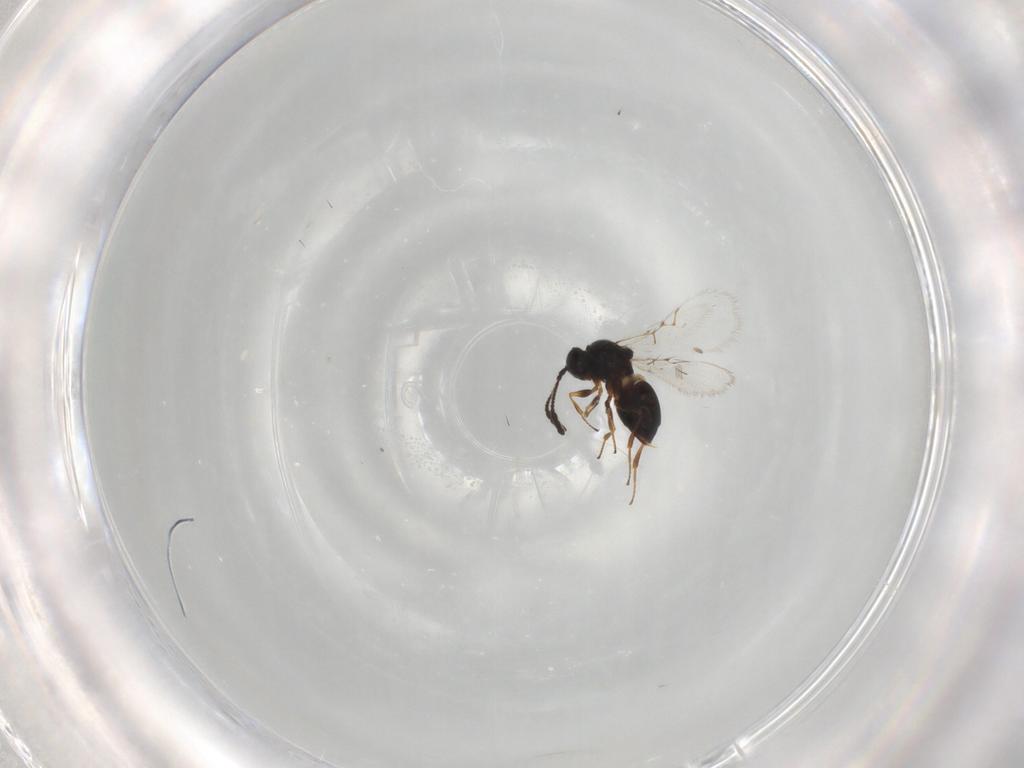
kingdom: Animalia
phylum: Arthropoda
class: Insecta
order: Hymenoptera
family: Figitidae
